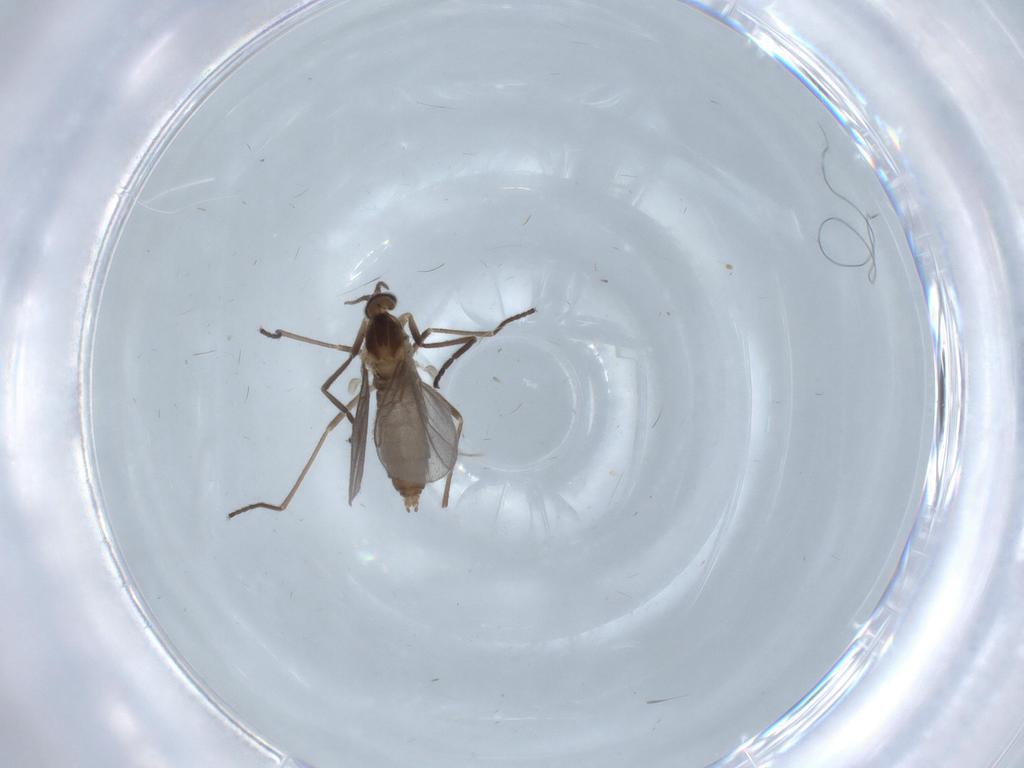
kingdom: Animalia
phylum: Arthropoda
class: Insecta
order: Diptera
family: Cecidomyiidae
